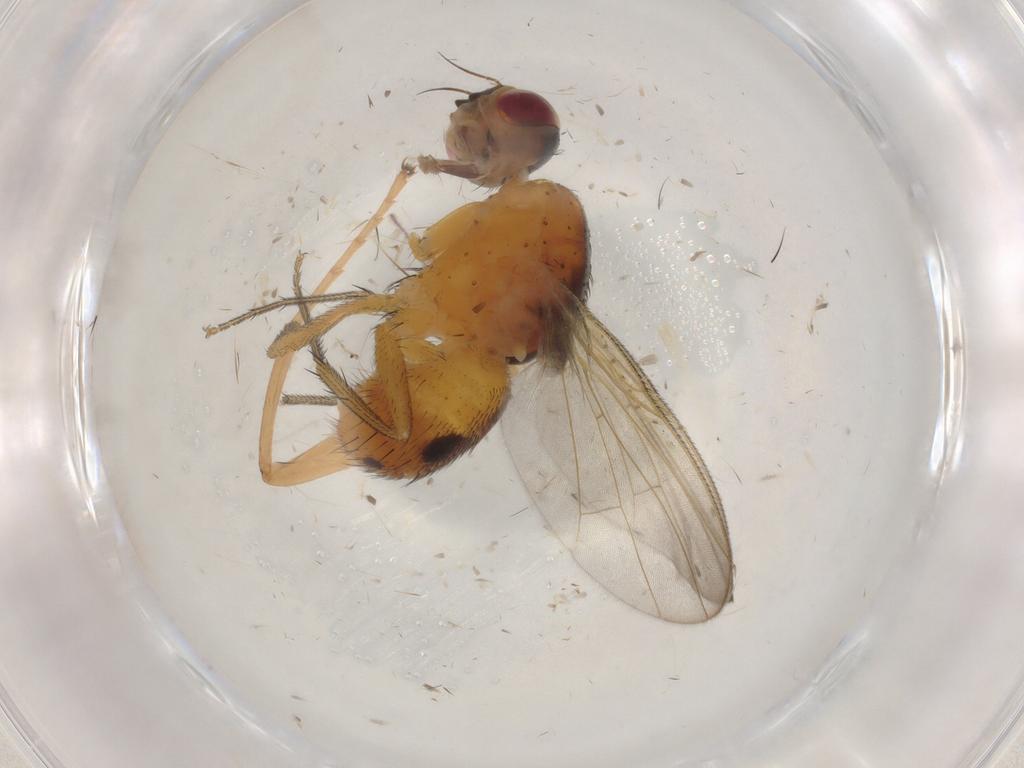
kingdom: Animalia
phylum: Arthropoda
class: Insecta
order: Diptera
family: Muscidae
